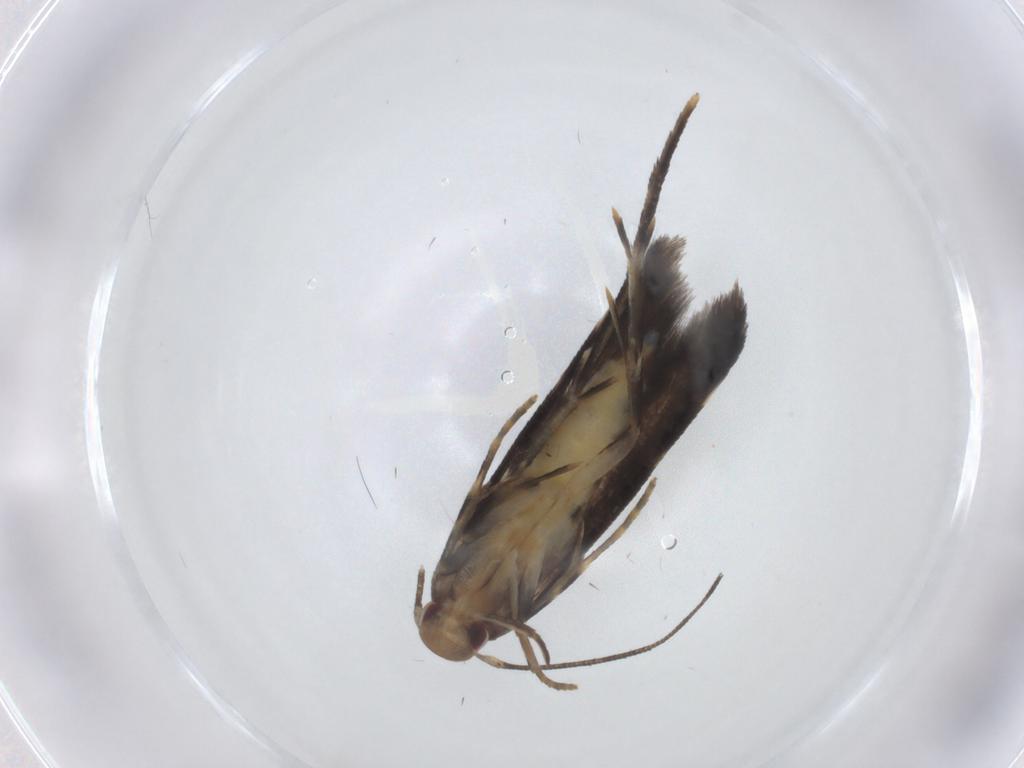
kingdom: Animalia
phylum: Arthropoda
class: Insecta
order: Lepidoptera
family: Momphidae
